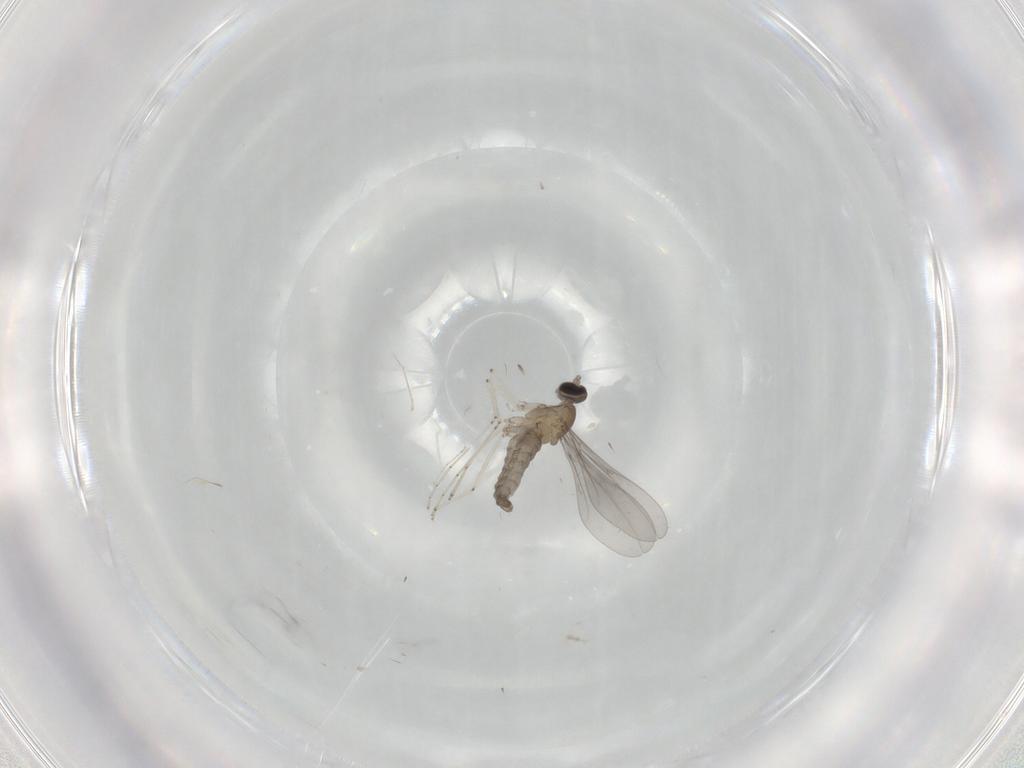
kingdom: Animalia
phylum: Arthropoda
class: Insecta
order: Diptera
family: Cecidomyiidae
